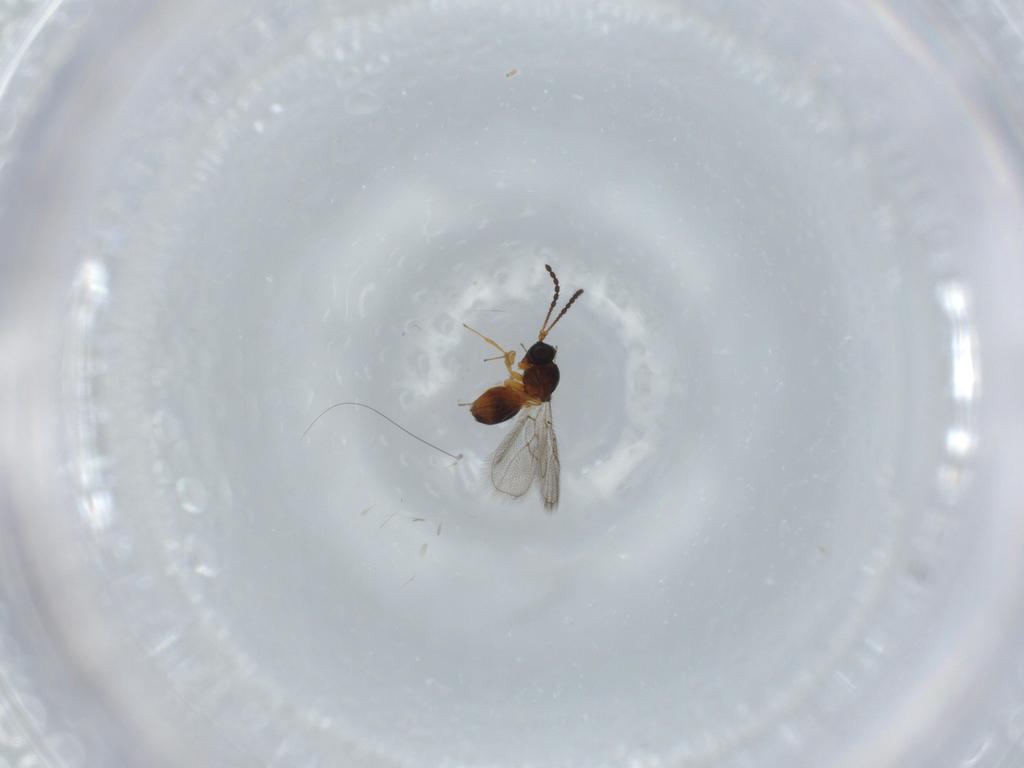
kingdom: Animalia
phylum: Arthropoda
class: Insecta
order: Hymenoptera
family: Figitidae
